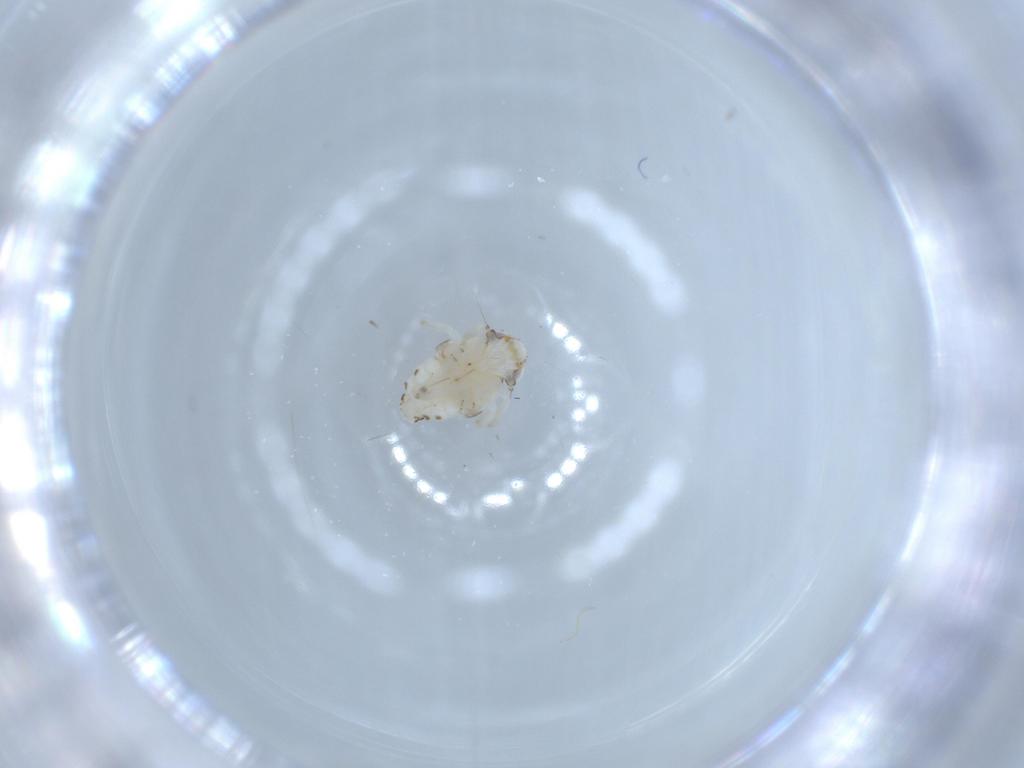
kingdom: Animalia
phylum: Arthropoda
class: Insecta
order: Hemiptera
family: Nogodinidae
